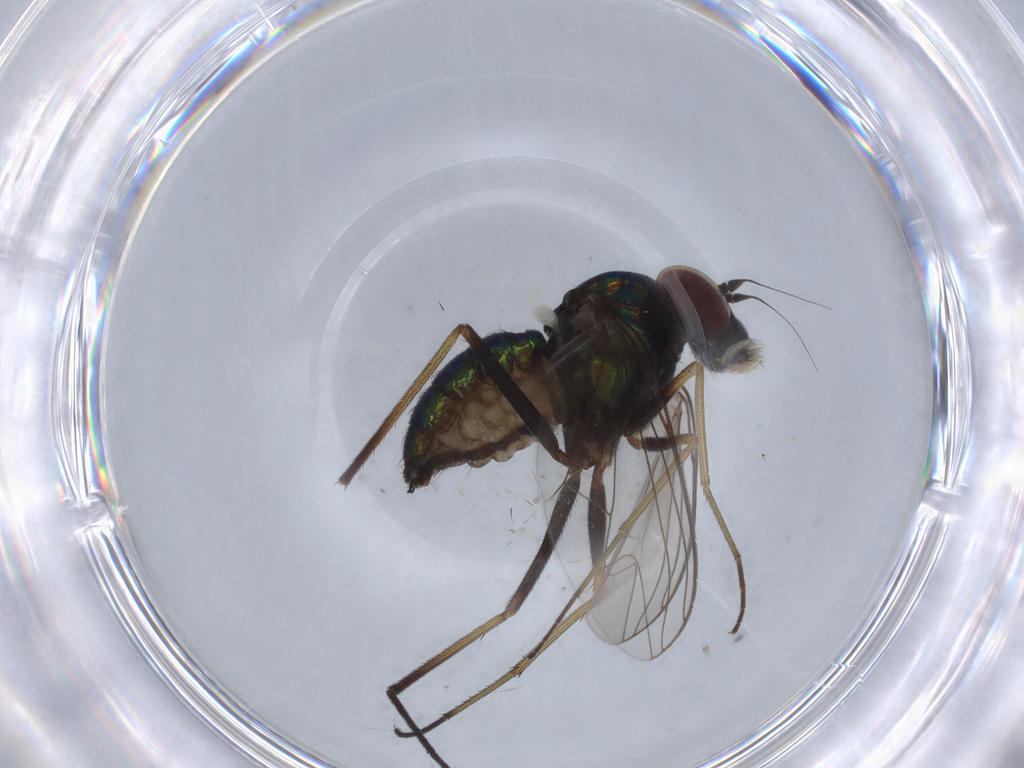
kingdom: Animalia
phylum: Arthropoda
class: Insecta
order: Diptera
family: Dolichopodidae
